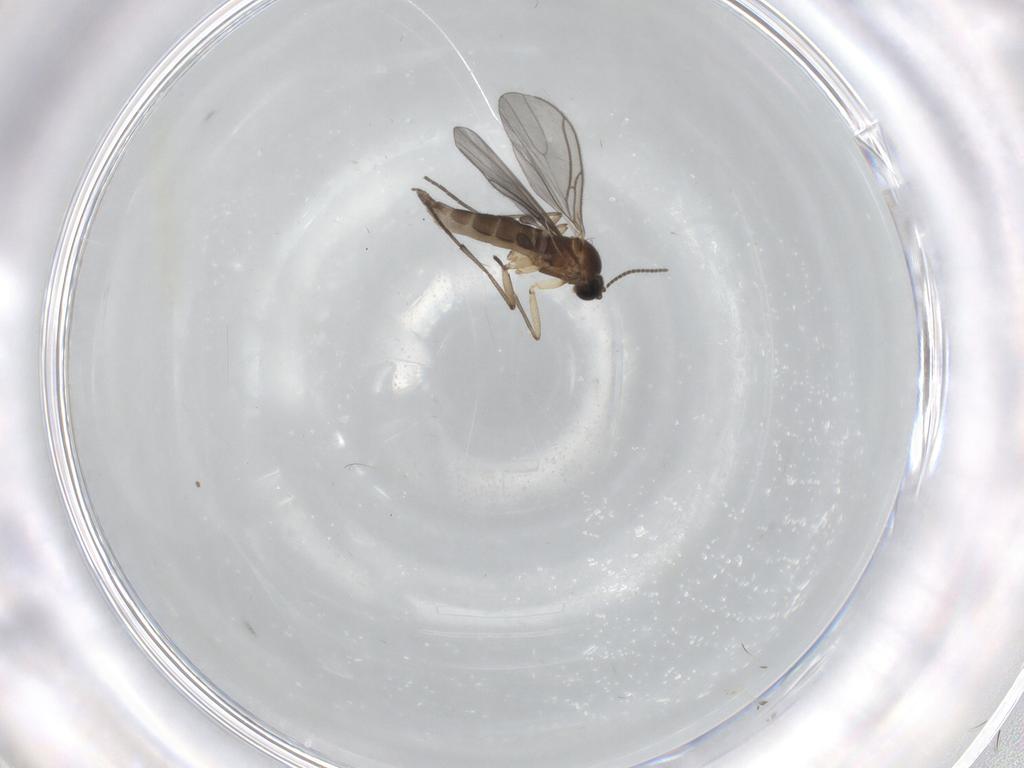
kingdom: Animalia
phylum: Arthropoda
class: Insecta
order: Diptera
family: Sciaridae
